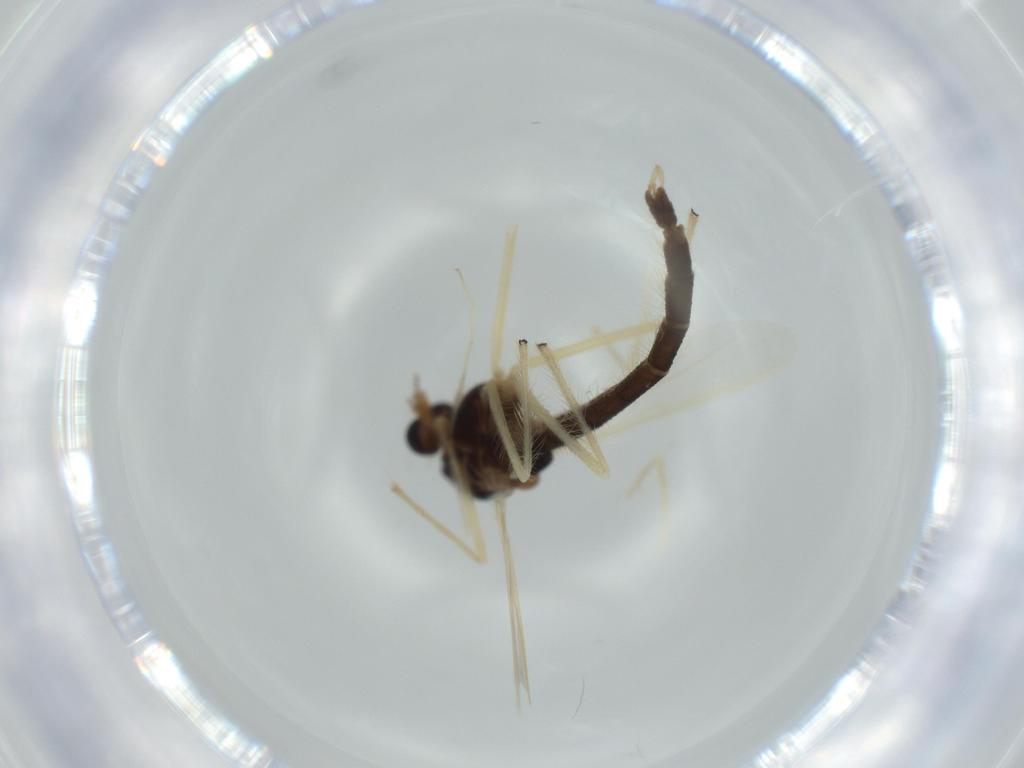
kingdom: Animalia
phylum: Arthropoda
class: Insecta
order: Diptera
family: Chironomidae
